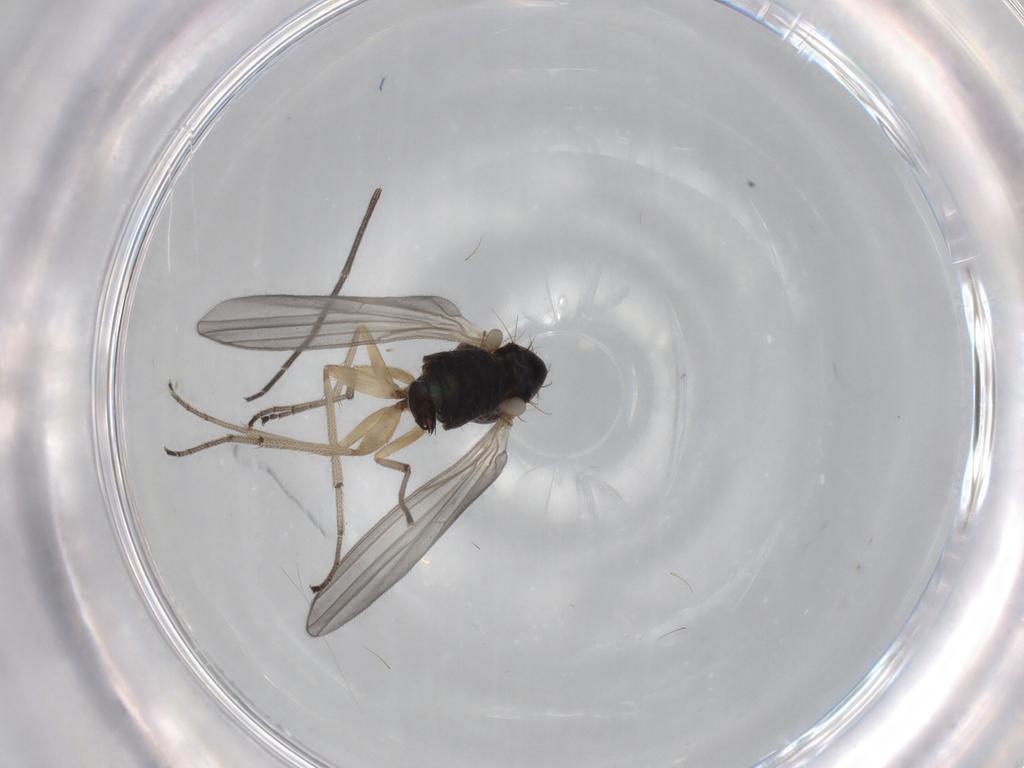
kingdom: Animalia
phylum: Arthropoda
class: Insecta
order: Diptera
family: Dolichopodidae
